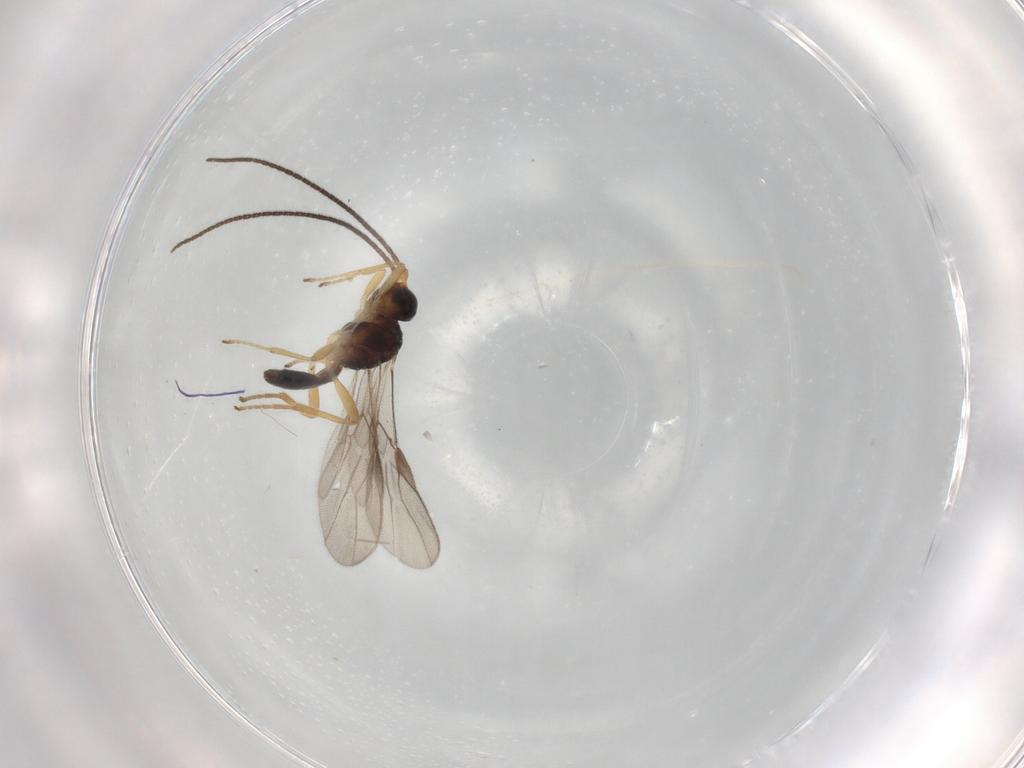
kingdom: Animalia
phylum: Arthropoda
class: Insecta
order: Hymenoptera
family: Braconidae
